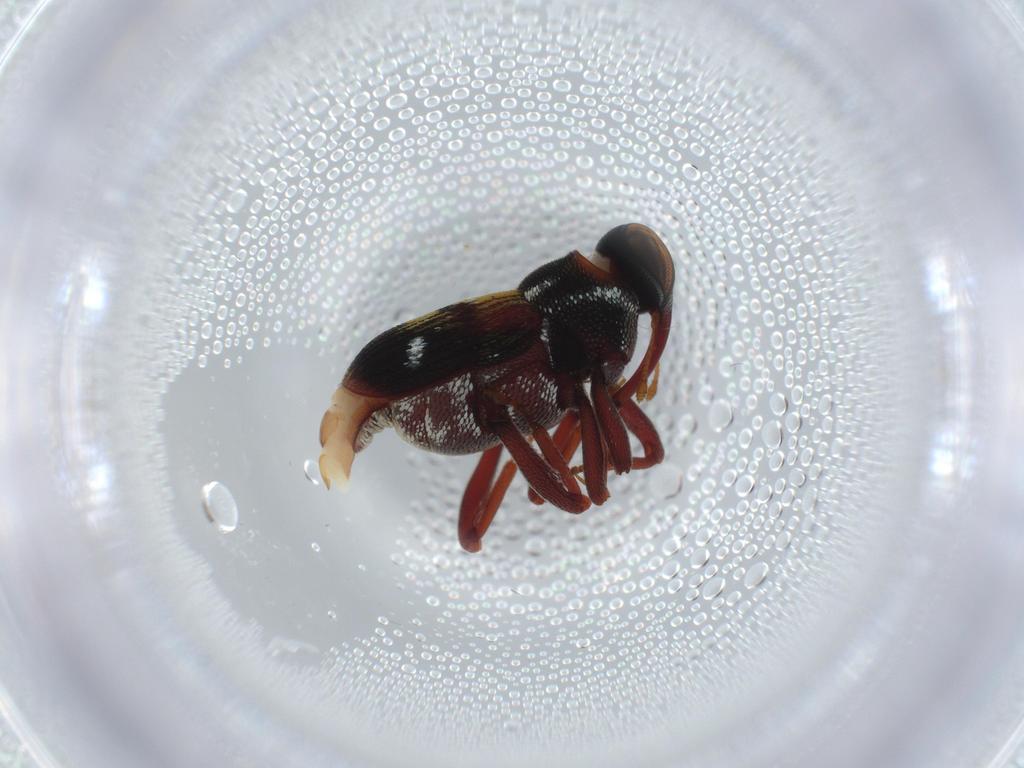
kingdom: Animalia
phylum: Arthropoda
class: Insecta
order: Coleoptera
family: Curculionidae
